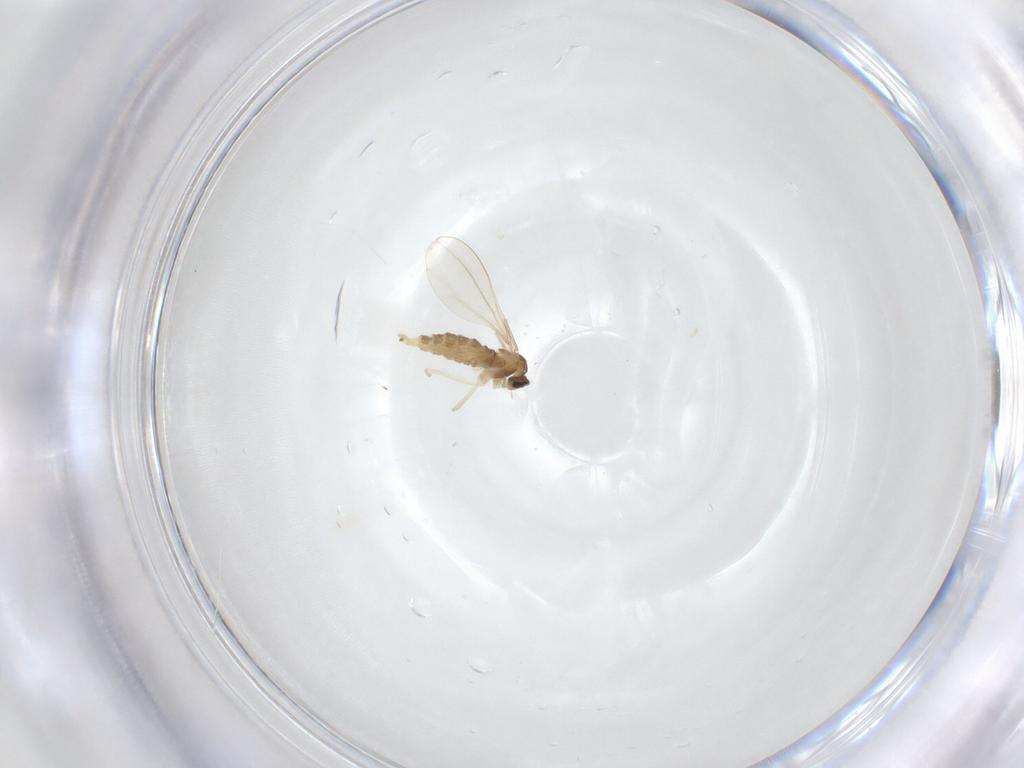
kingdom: Animalia
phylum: Arthropoda
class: Insecta
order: Diptera
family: Cecidomyiidae
